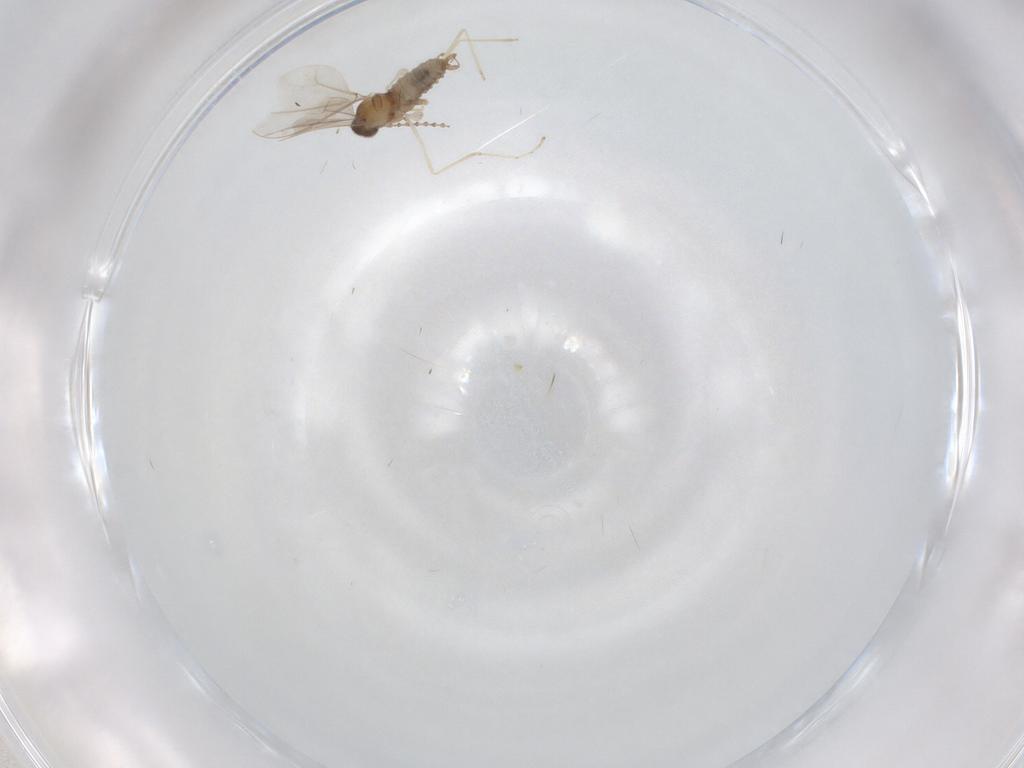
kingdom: Animalia
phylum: Arthropoda
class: Insecta
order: Diptera
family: Cecidomyiidae
